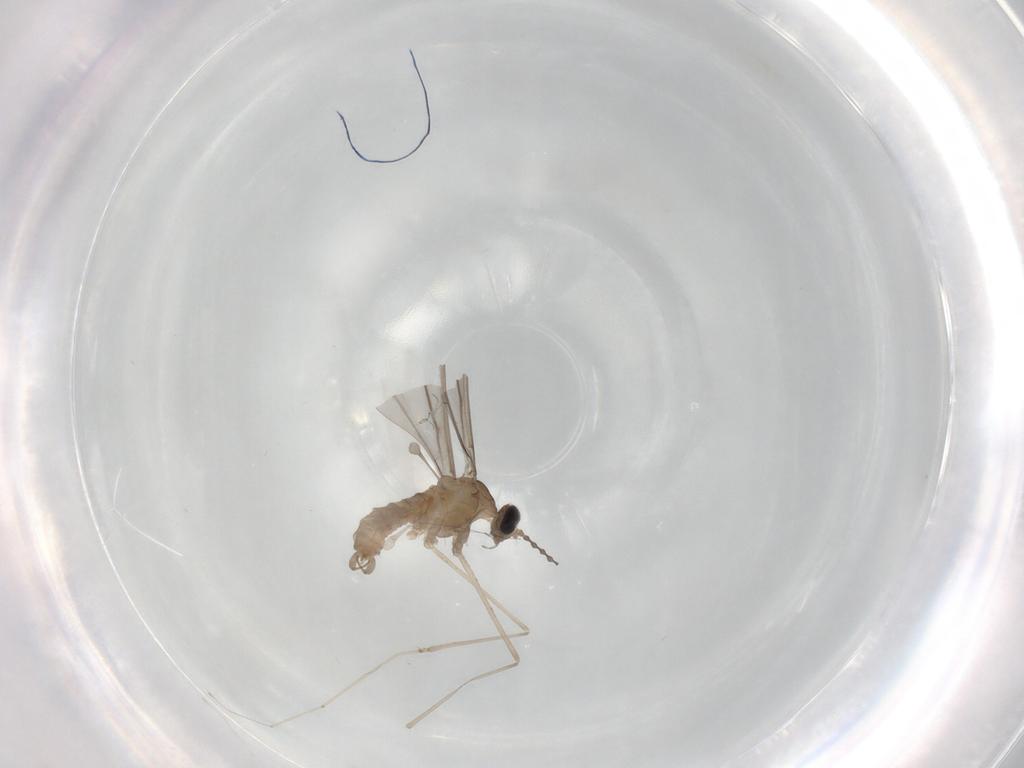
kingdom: Animalia
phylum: Arthropoda
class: Insecta
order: Diptera
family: Cecidomyiidae
